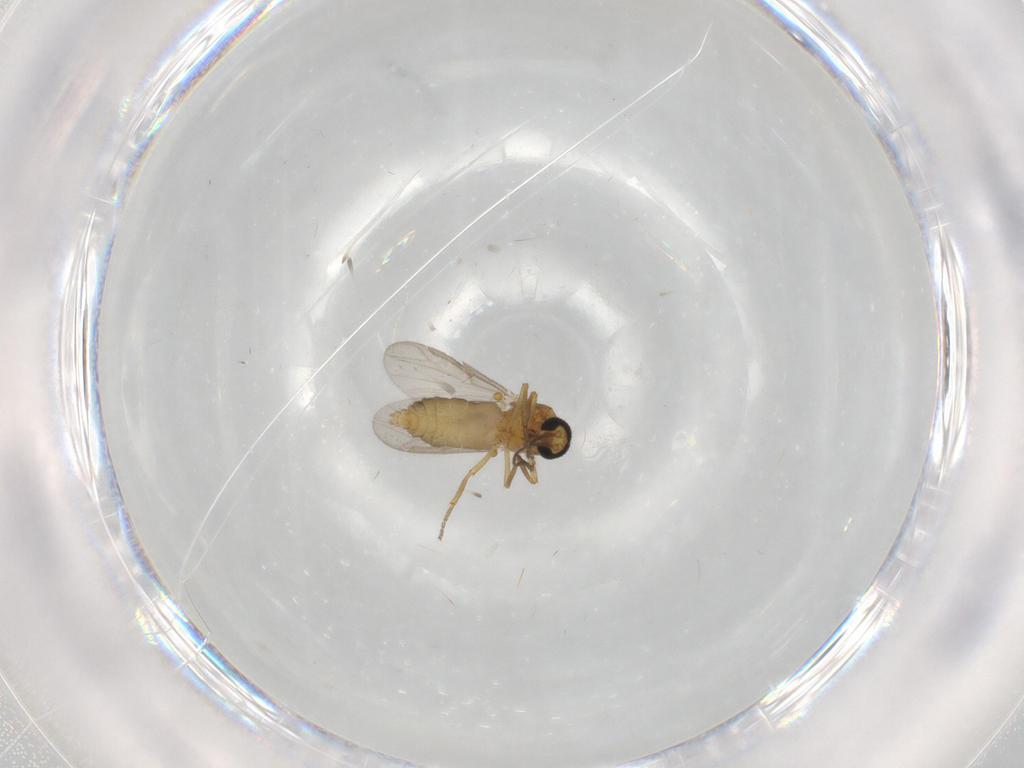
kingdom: Animalia
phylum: Arthropoda
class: Insecta
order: Diptera
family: Ceratopogonidae
